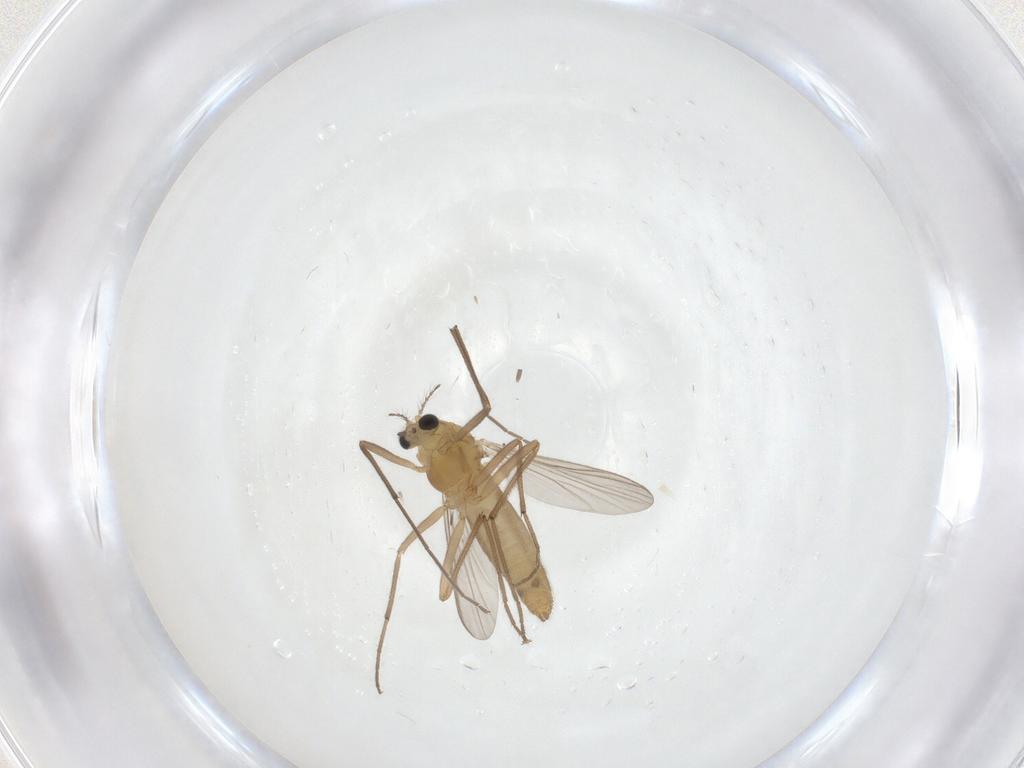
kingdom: Animalia
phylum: Arthropoda
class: Insecta
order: Diptera
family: Chironomidae
